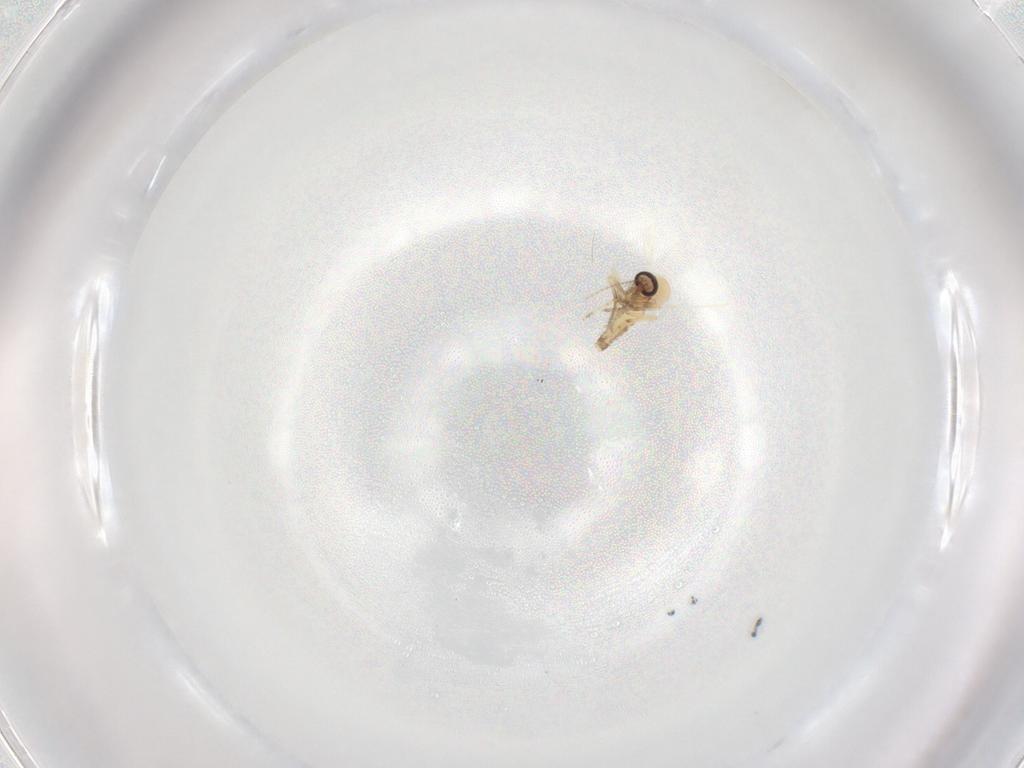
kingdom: Animalia
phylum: Arthropoda
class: Insecta
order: Diptera
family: Ceratopogonidae
